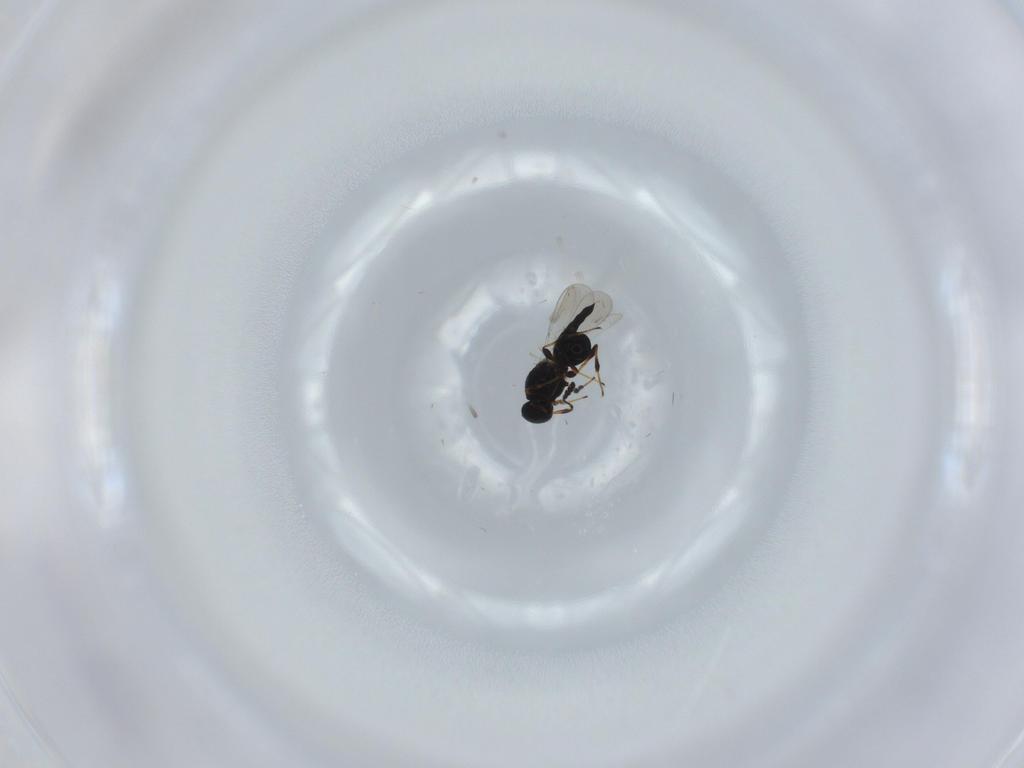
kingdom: Animalia
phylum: Arthropoda
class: Insecta
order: Hymenoptera
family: Platygastridae
